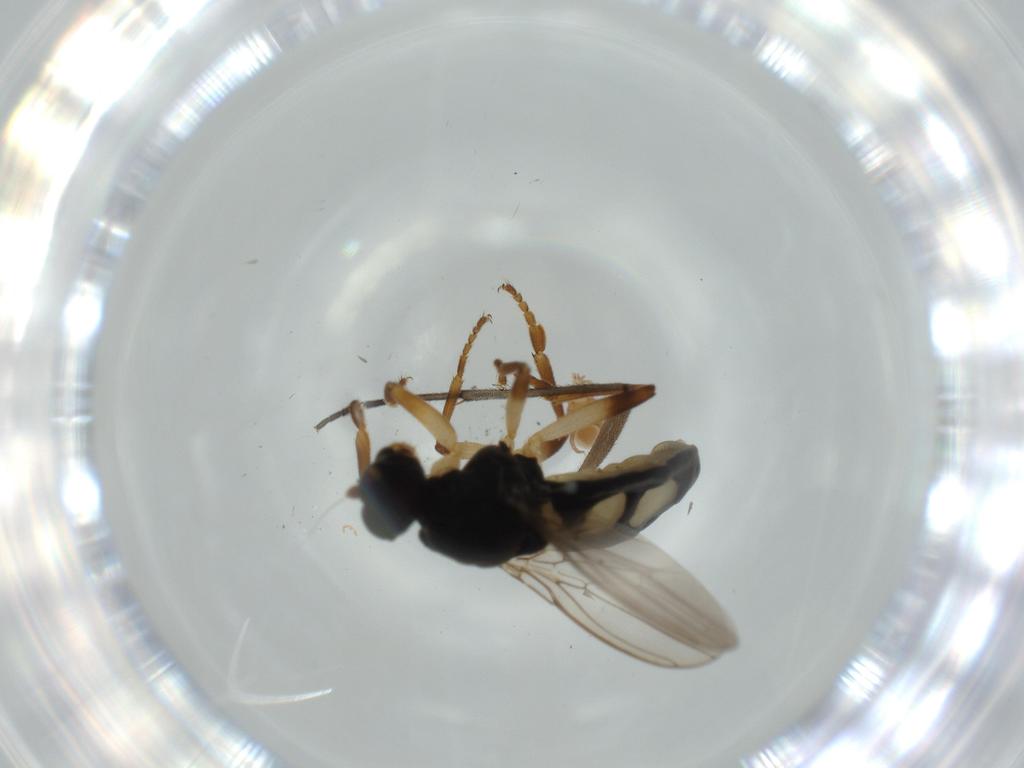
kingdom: Animalia
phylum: Arthropoda
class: Insecta
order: Diptera
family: Sphaeroceridae
